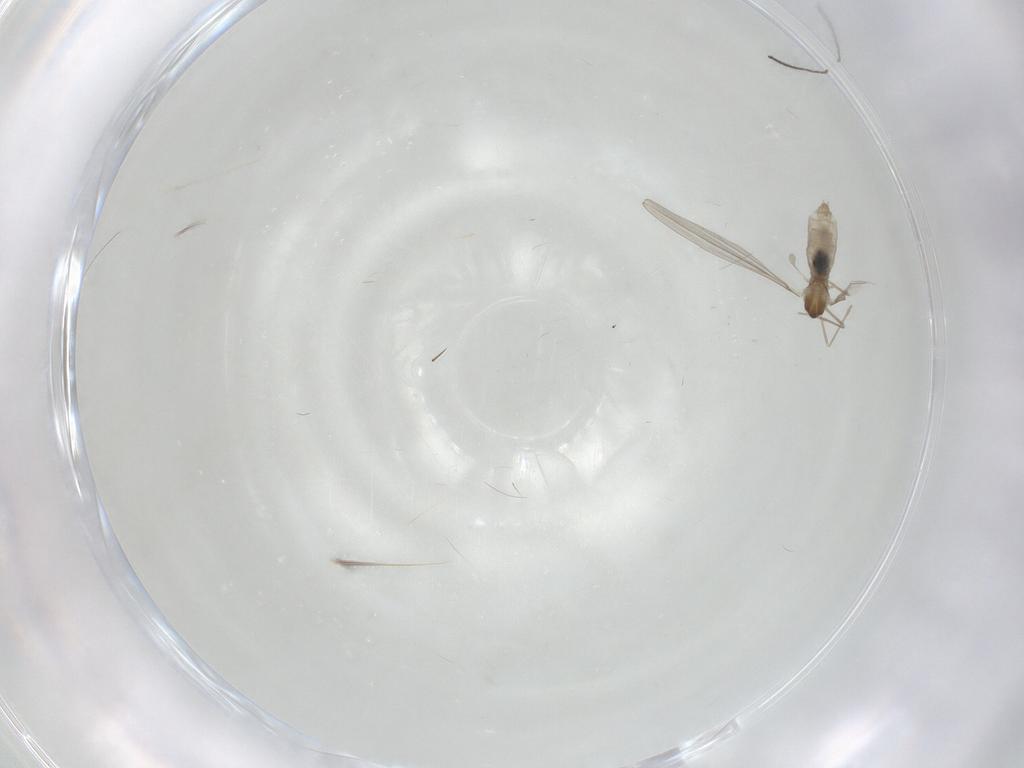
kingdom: Animalia
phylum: Arthropoda
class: Insecta
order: Diptera
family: Cecidomyiidae
